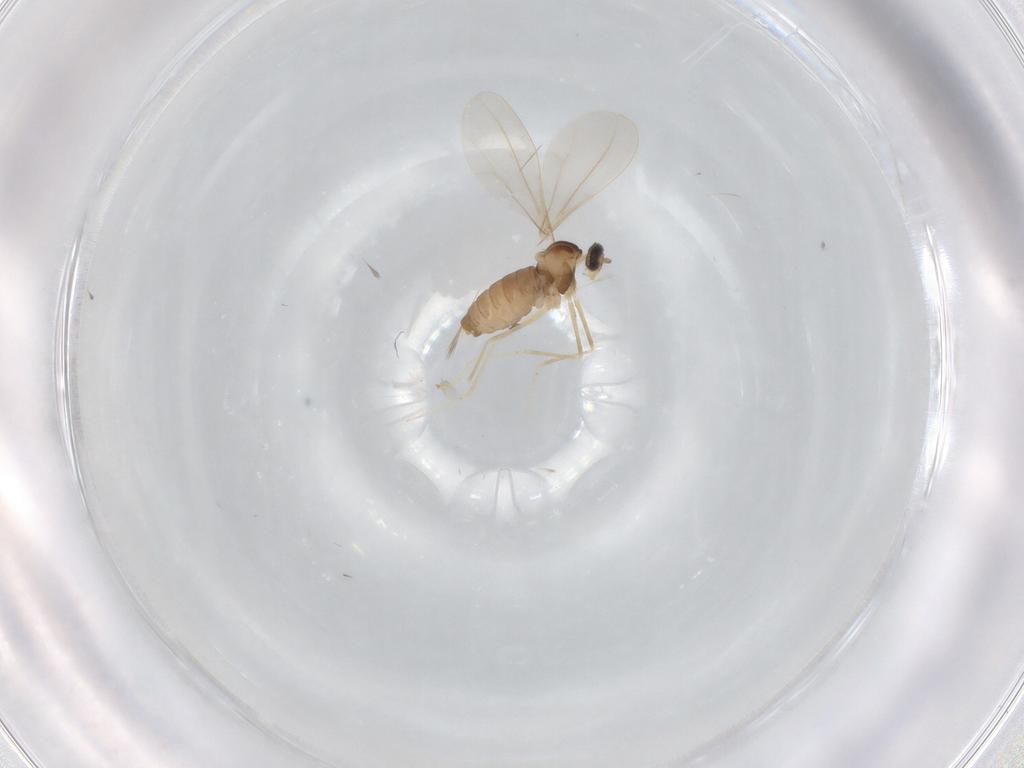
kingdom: Animalia
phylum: Arthropoda
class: Insecta
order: Diptera
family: Cecidomyiidae
